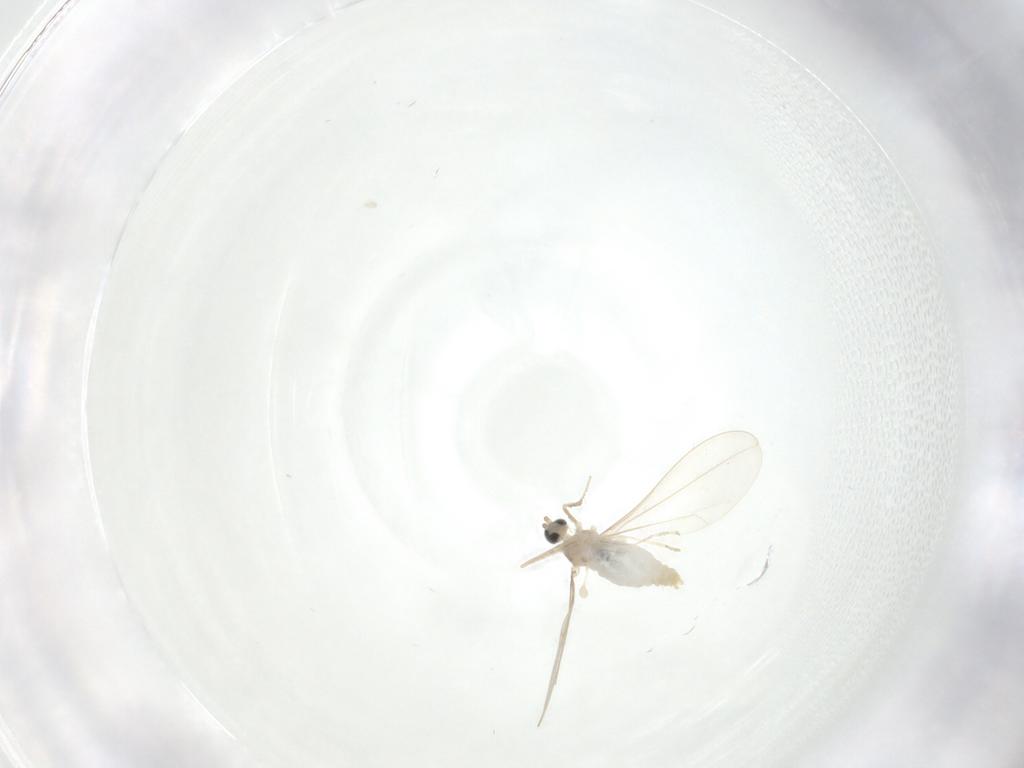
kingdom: Animalia
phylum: Arthropoda
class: Insecta
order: Diptera
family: Cecidomyiidae
